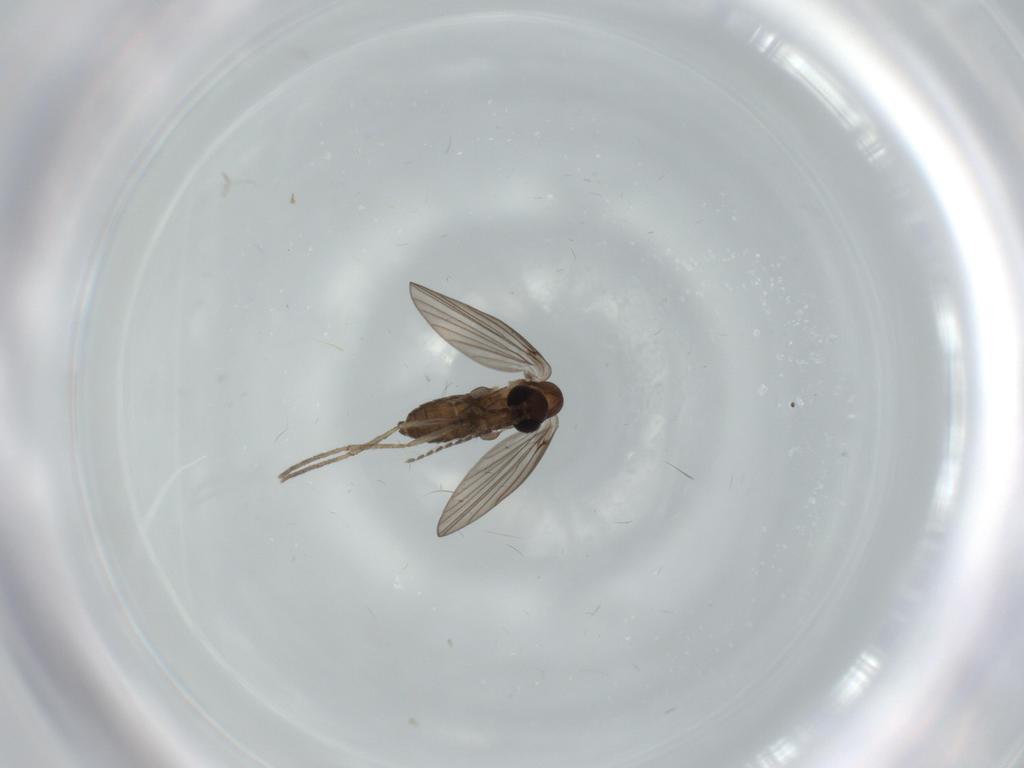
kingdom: Animalia
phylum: Arthropoda
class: Insecta
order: Diptera
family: Psychodidae
